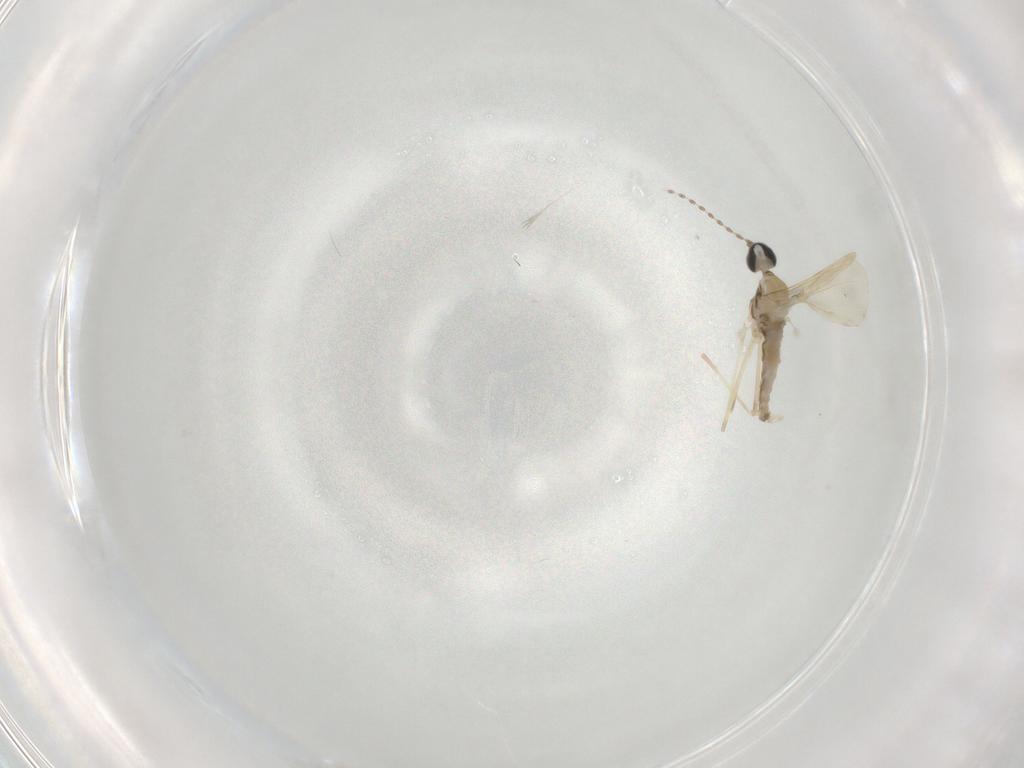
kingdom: Animalia
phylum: Arthropoda
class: Insecta
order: Diptera
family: Cecidomyiidae
